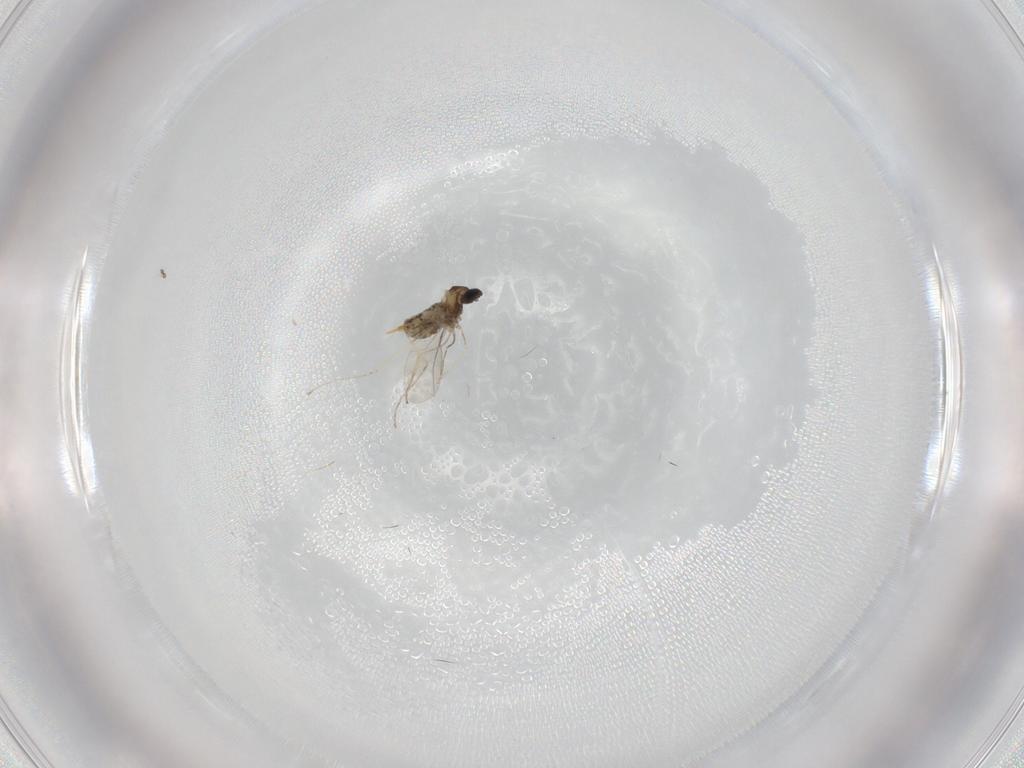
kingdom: Animalia
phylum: Arthropoda
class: Insecta
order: Diptera
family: Cecidomyiidae
